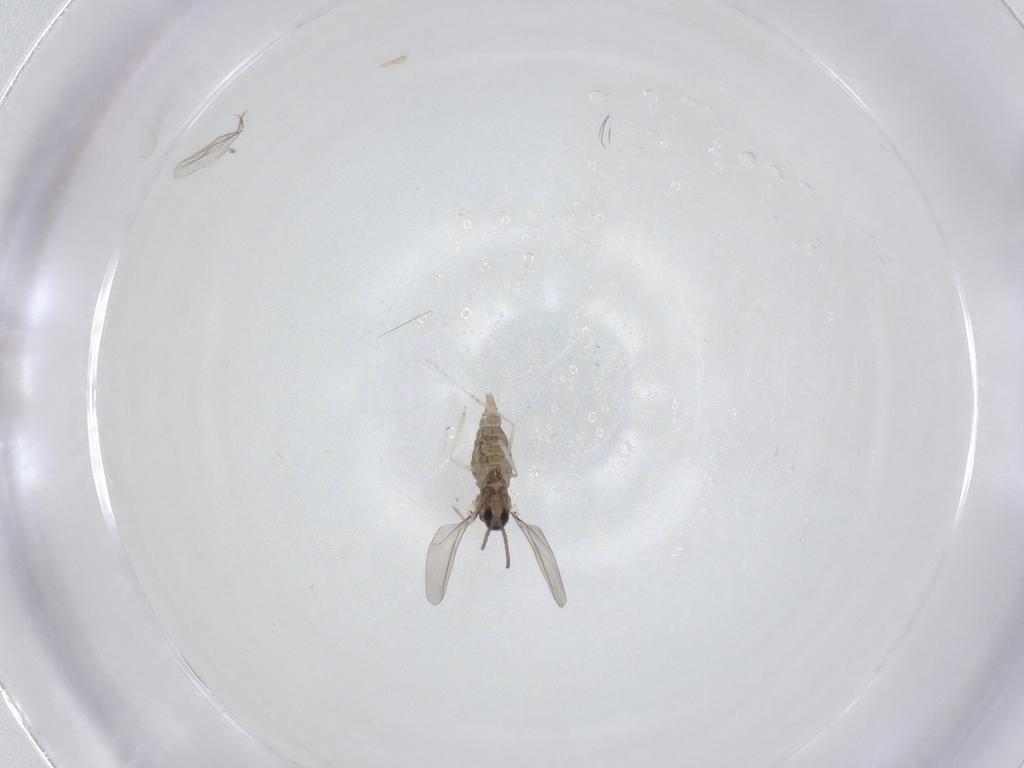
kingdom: Animalia
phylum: Arthropoda
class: Insecta
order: Diptera
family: Cecidomyiidae
